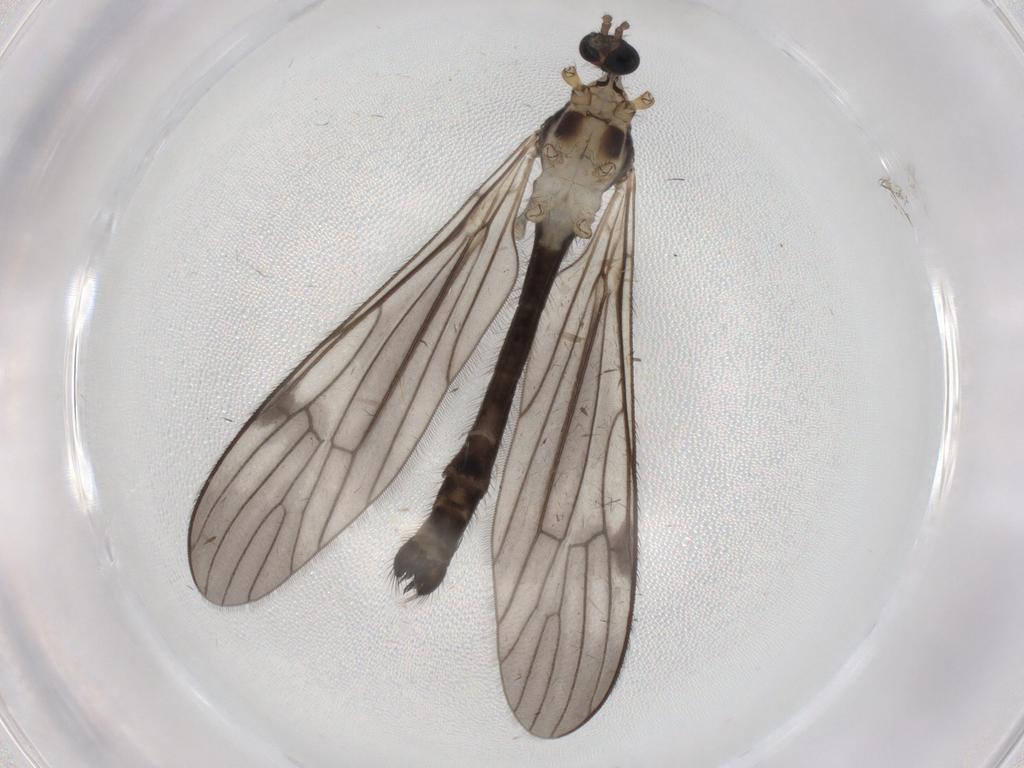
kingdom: Animalia
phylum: Arthropoda
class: Insecta
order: Diptera
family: Limoniidae
